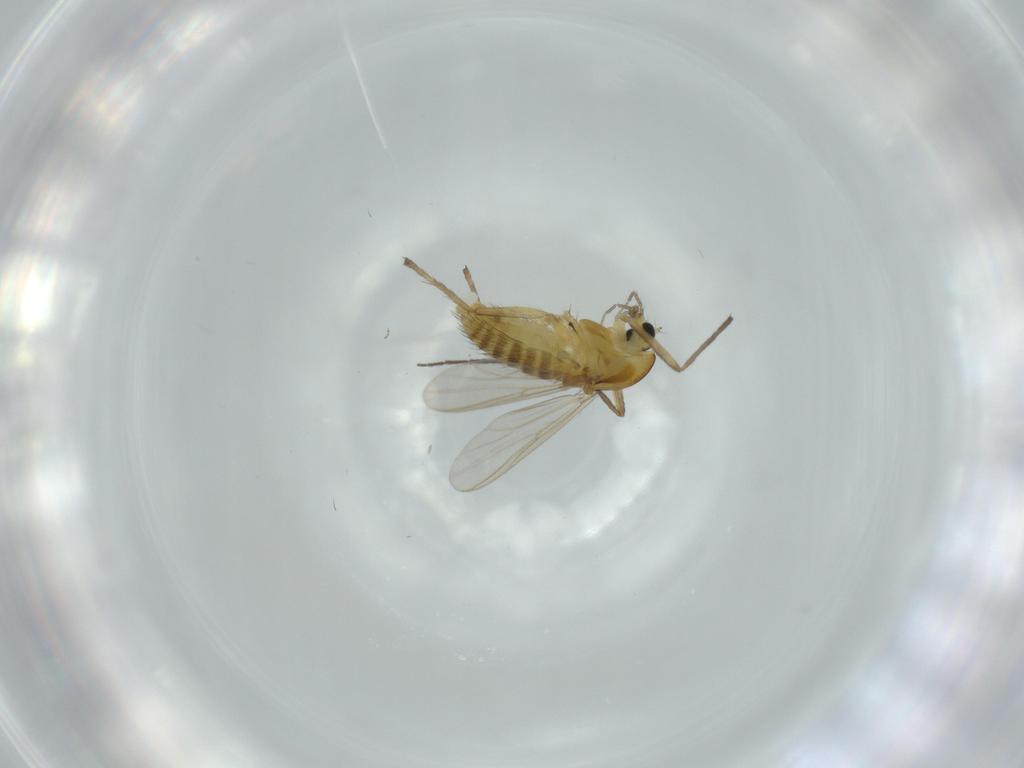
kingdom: Animalia
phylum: Arthropoda
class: Insecta
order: Diptera
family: Chironomidae
